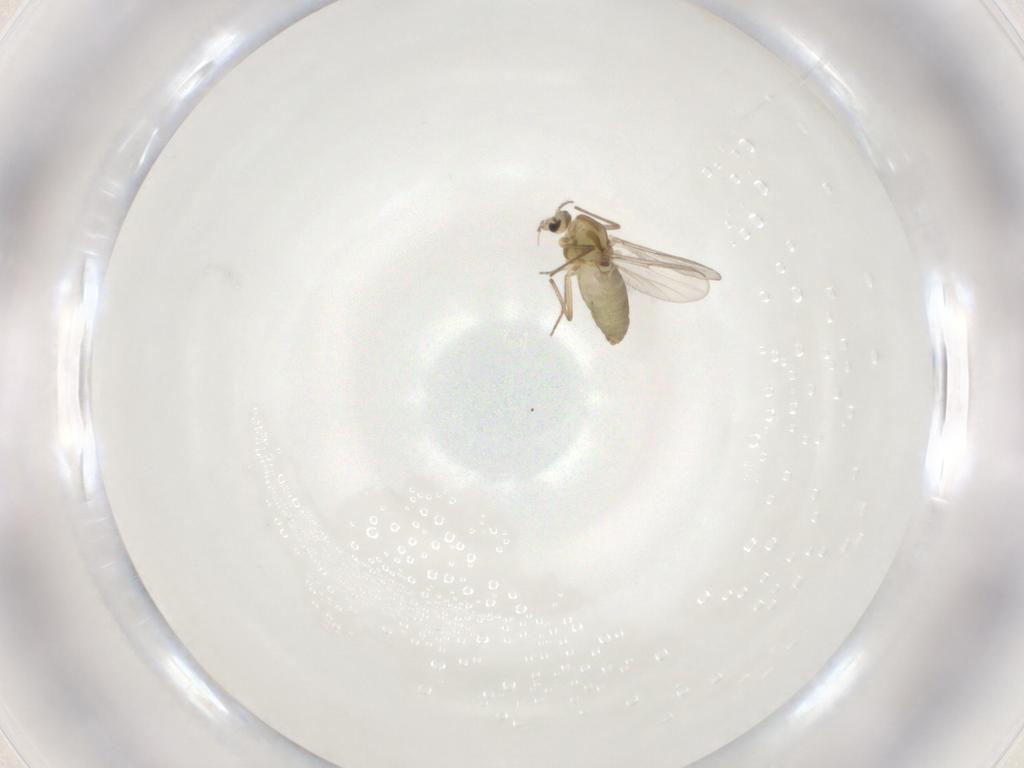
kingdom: Animalia
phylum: Arthropoda
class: Insecta
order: Diptera
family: Chironomidae
